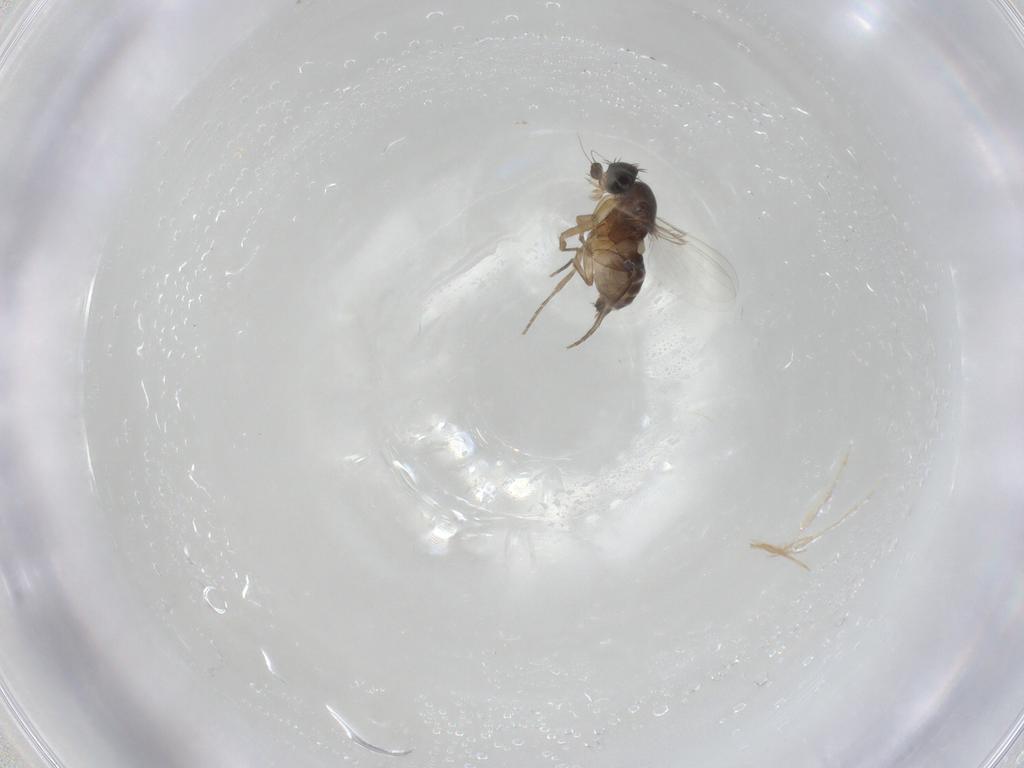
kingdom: Animalia
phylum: Arthropoda
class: Insecta
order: Diptera
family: Phoridae
